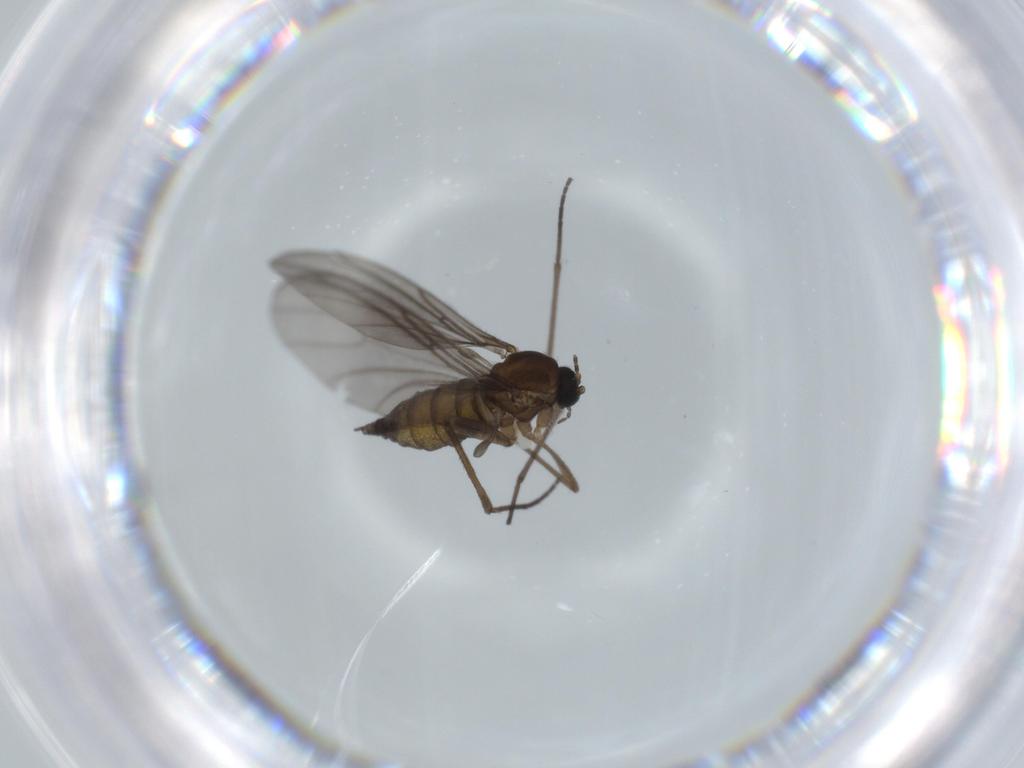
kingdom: Animalia
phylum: Arthropoda
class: Insecta
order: Diptera
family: Sciaridae
